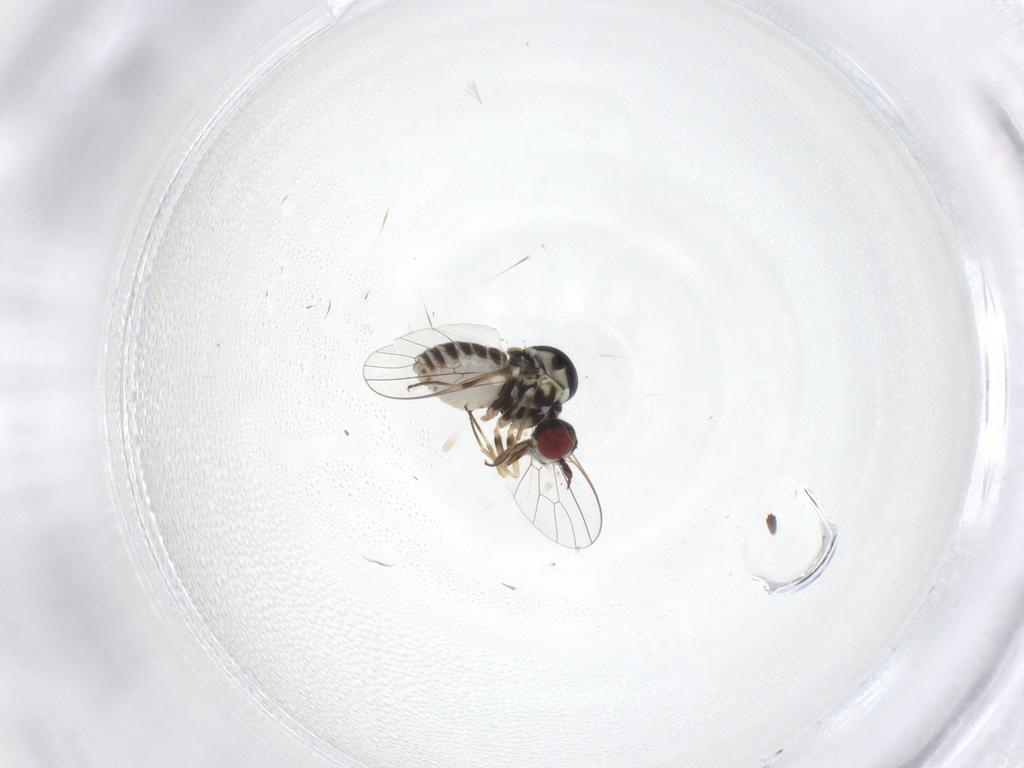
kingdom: Animalia
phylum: Arthropoda
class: Insecta
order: Diptera
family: Bombyliidae
